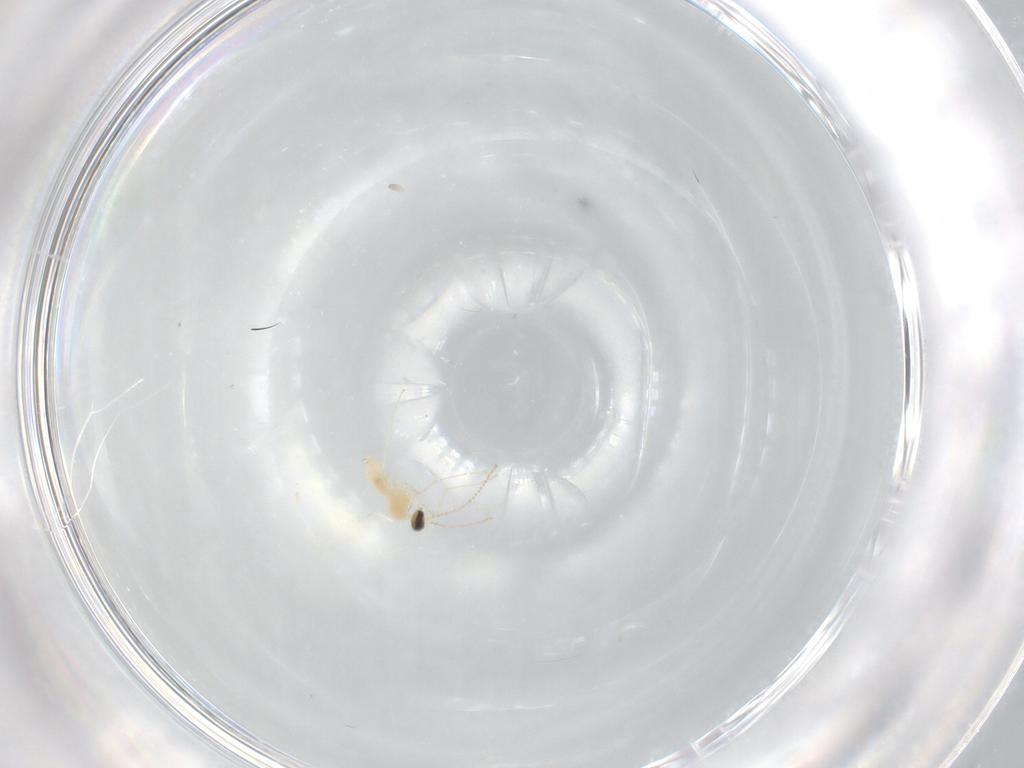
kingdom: Animalia
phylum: Arthropoda
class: Insecta
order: Diptera
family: Cecidomyiidae
